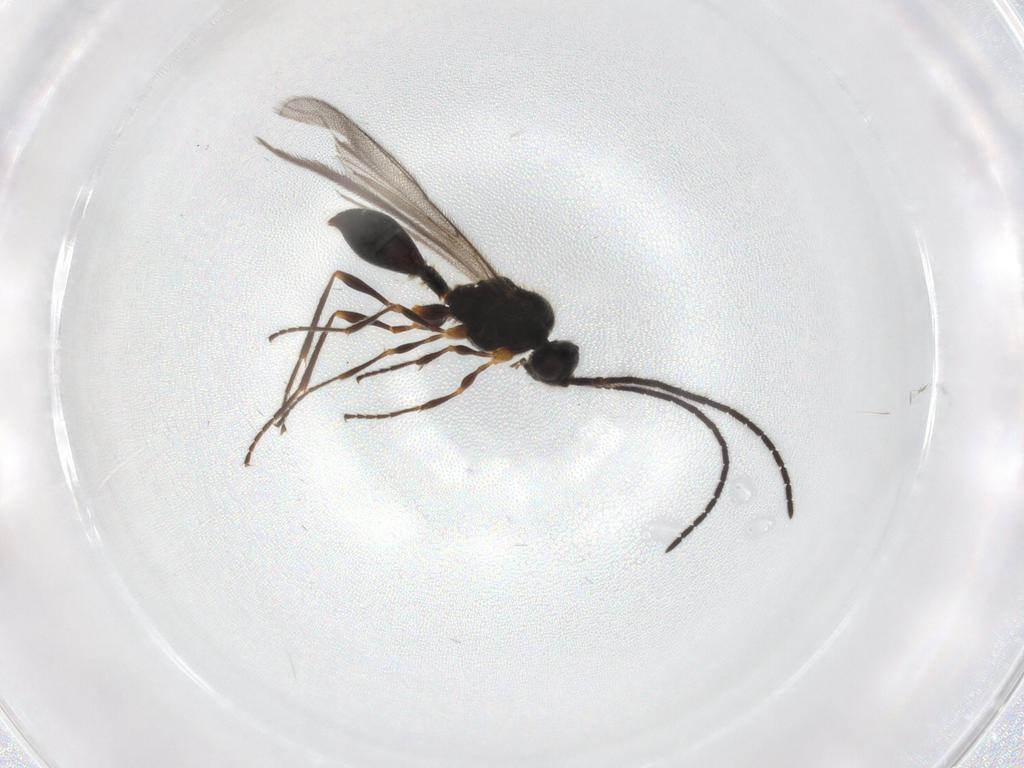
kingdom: Animalia
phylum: Arthropoda
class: Insecta
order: Hymenoptera
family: Diapriidae
